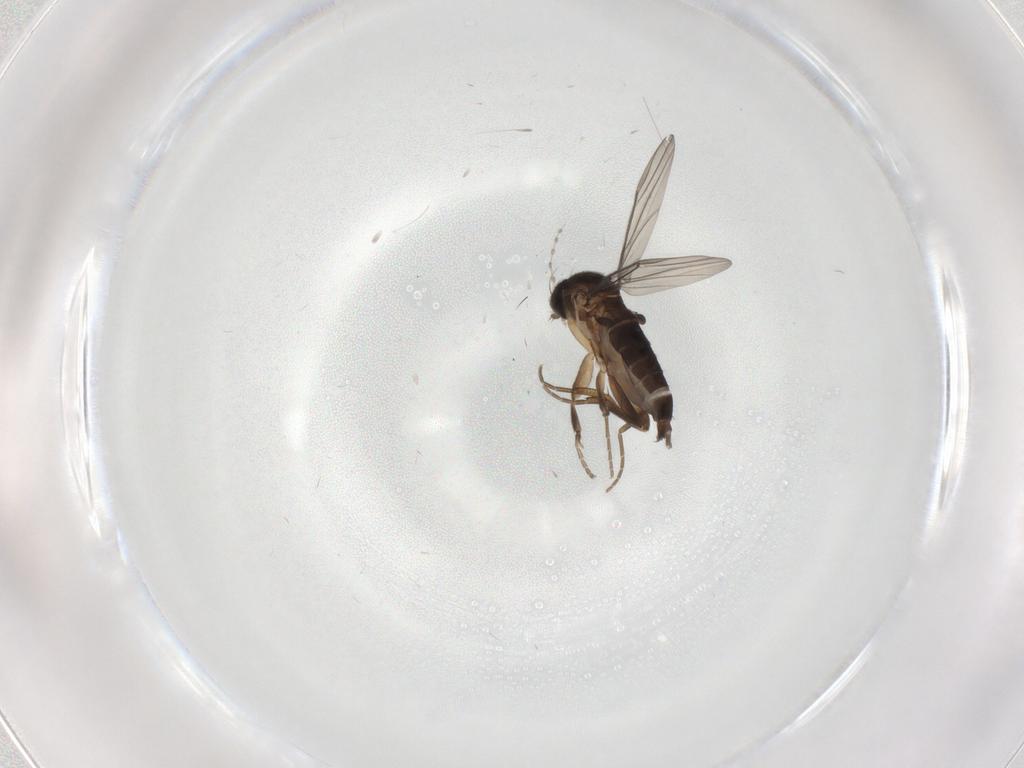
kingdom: Animalia
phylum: Arthropoda
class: Insecta
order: Diptera
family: Phoridae
